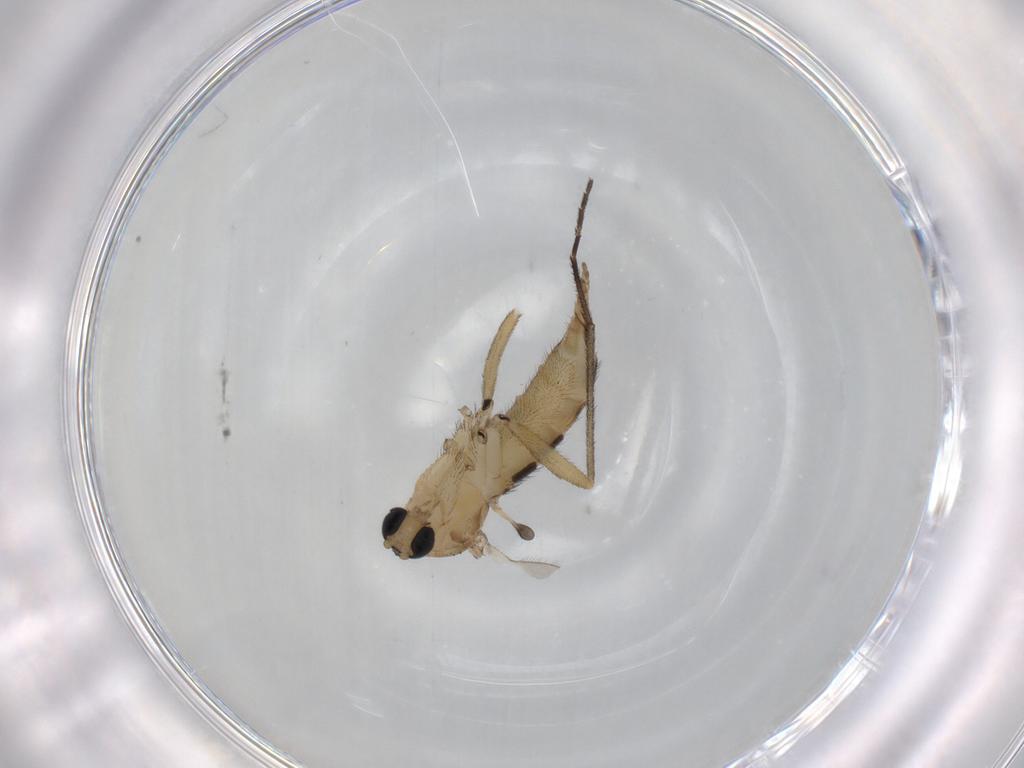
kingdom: Animalia
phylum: Arthropoda
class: Insecta
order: Diptera
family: Sciaridae
